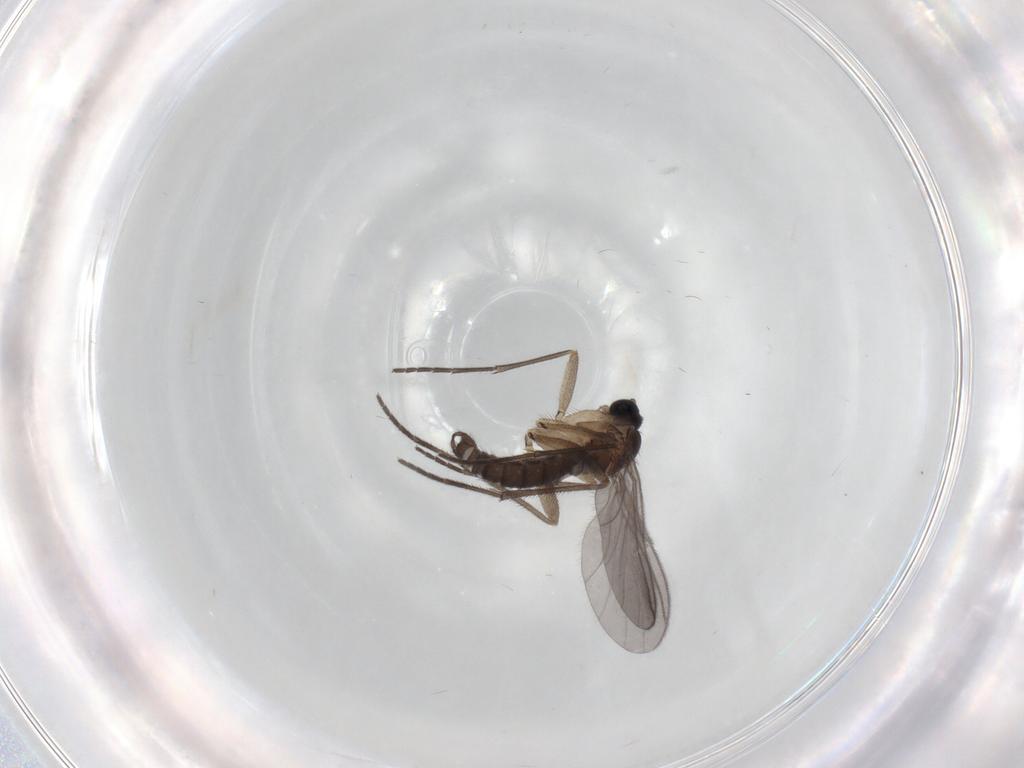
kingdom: Animalia
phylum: Arthropoda
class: Insecta
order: Diptera
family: Sciaridae
